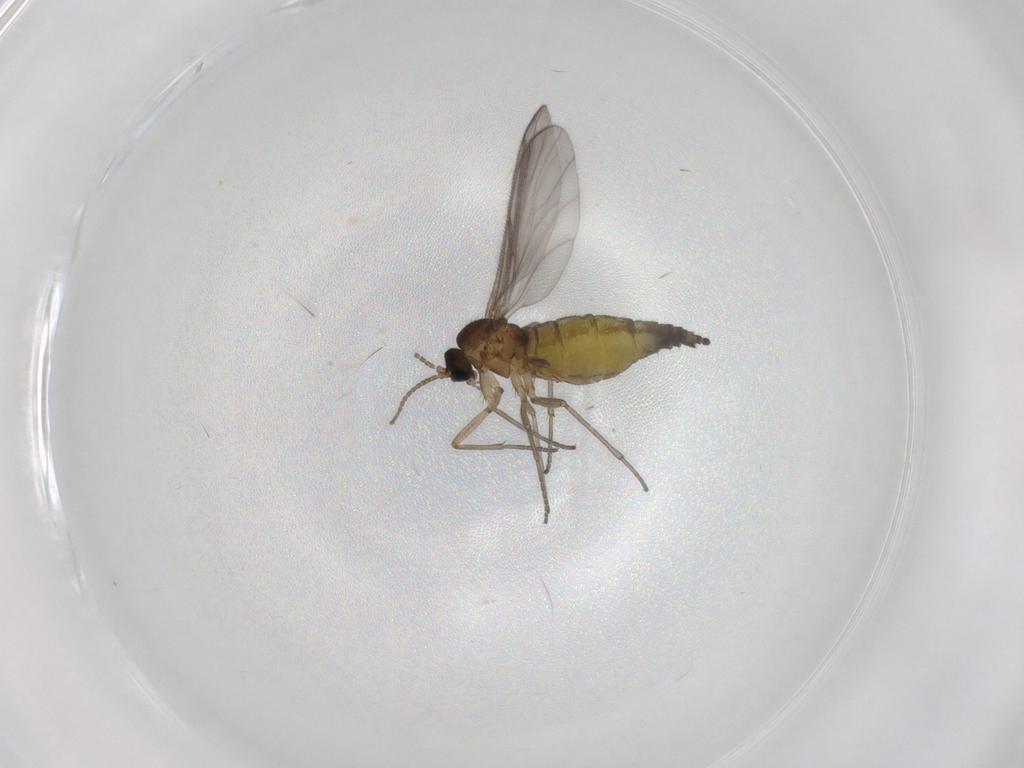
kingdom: Animalia
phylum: Arthropoda
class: Insecta
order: Diptera
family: Sciaridae
